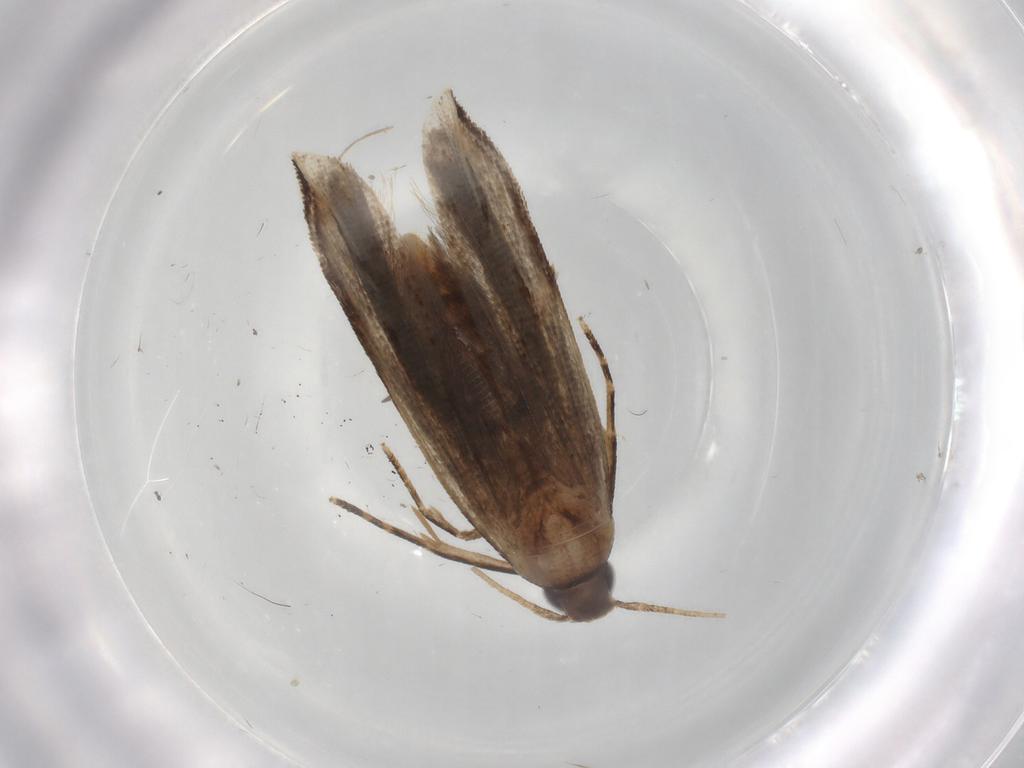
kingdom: Animalia
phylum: Arthropoda
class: Insecta
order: Lepidoptera
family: Gelechiidae
